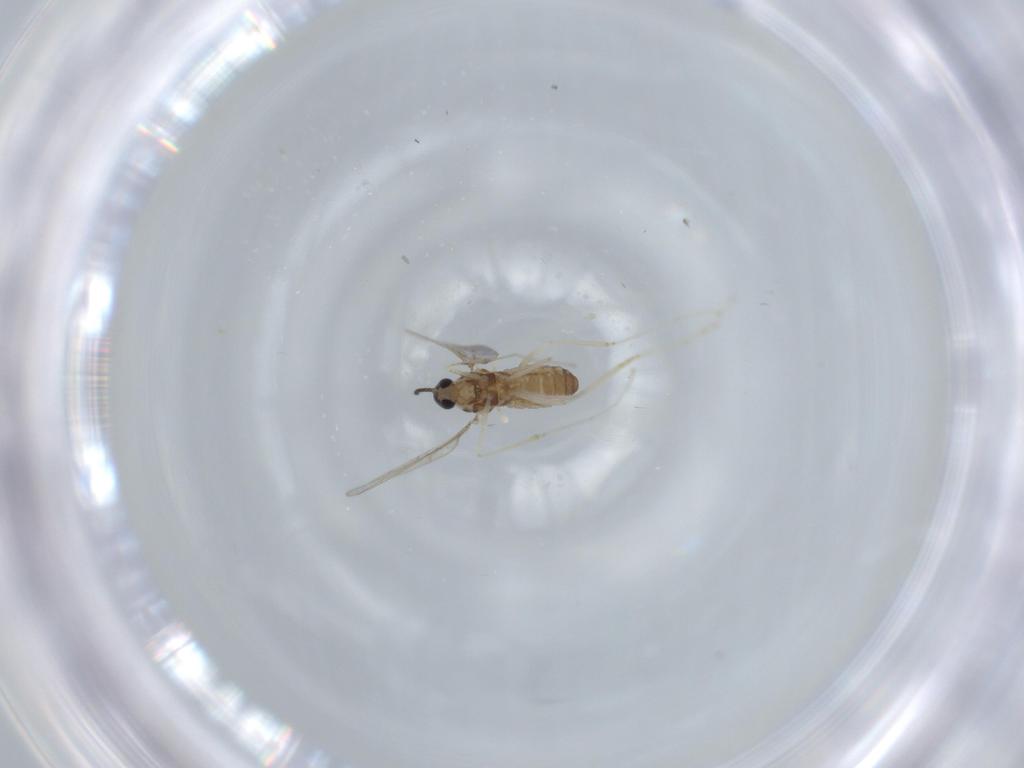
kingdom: Animalia
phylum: Arthropoda
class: Insecta
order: Diptera
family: Cecidomyiidae
